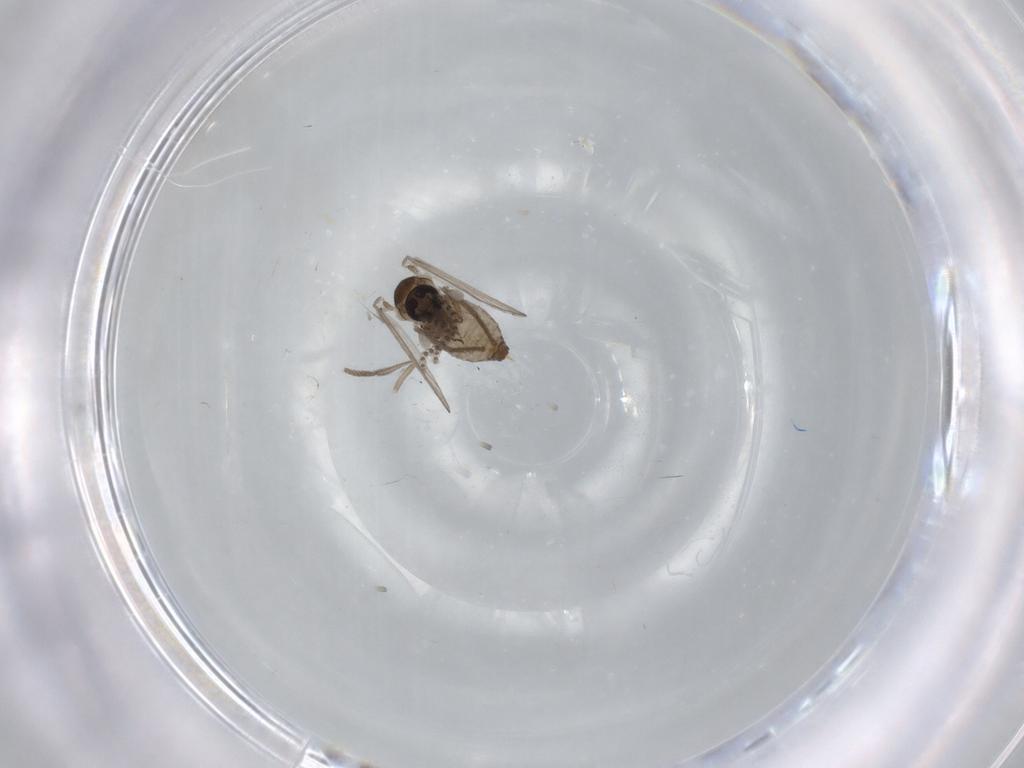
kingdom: Animalia
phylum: Arthropoda
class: Insecta
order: Diptera
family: Psychodidae
